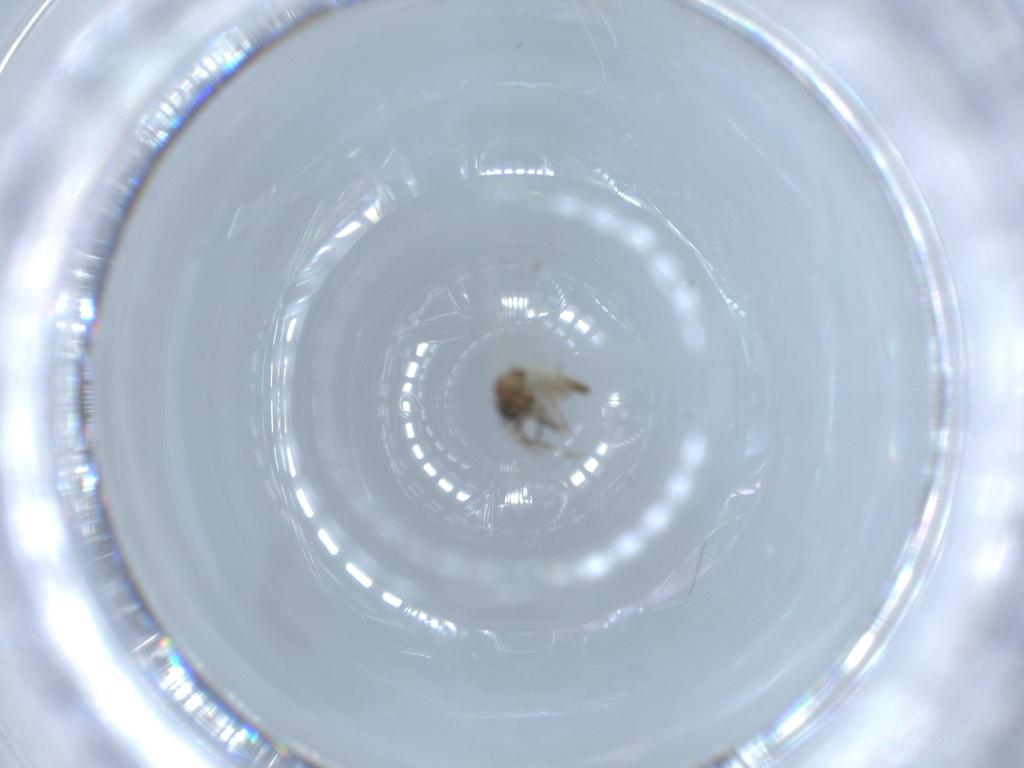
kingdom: Animalia
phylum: Arthropoda
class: Insecta
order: Diptera
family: Ceratopogonidae
